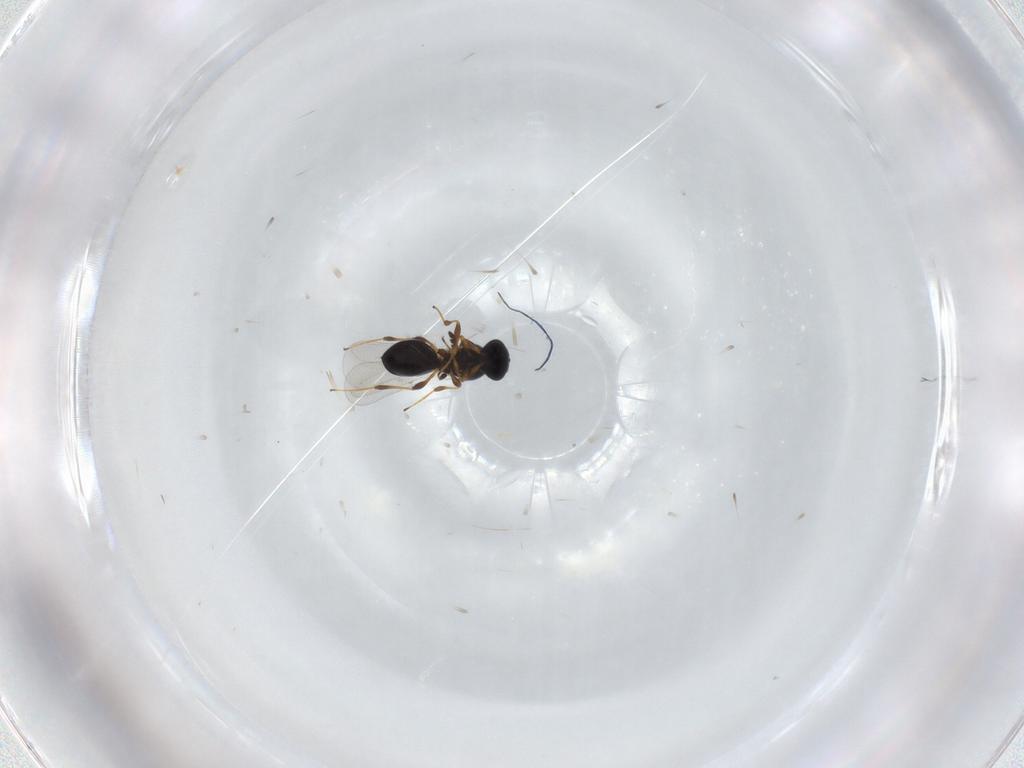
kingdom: Animalia
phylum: Arthropoda
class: Insecta
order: Hymenoptera
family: Platygastridae
